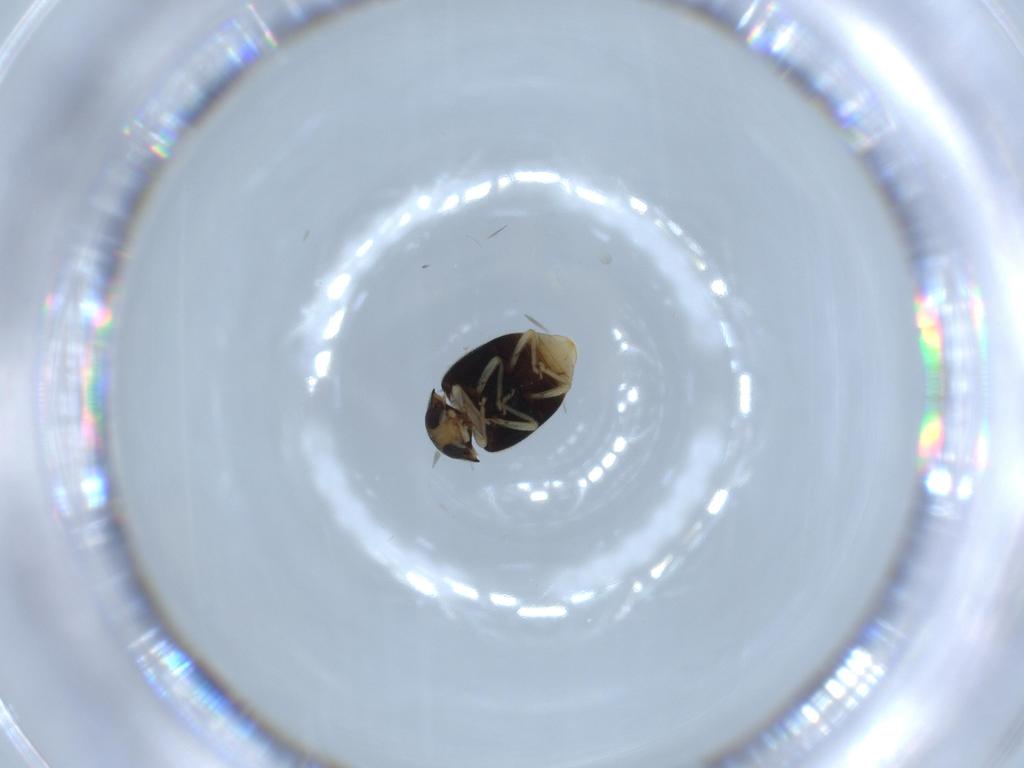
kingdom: Animalia
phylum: Arthropoda
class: Insecta
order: Coleoptera
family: Coccinellidae
